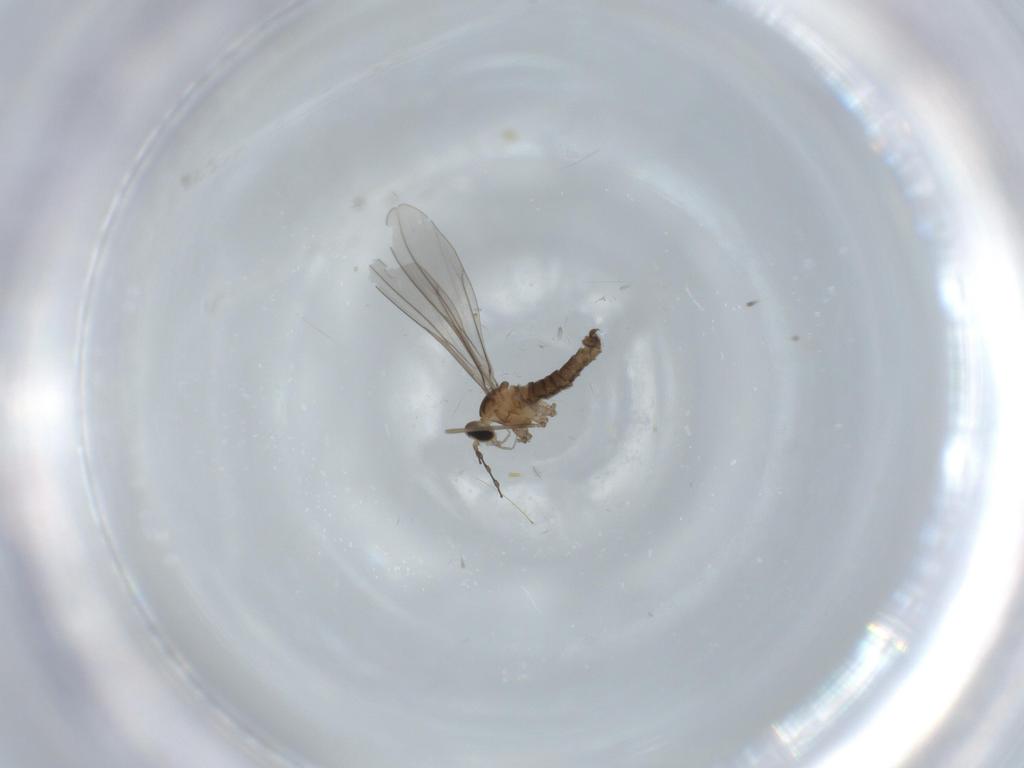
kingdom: Animalia
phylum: Arthropoda
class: Insecta
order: Diptera
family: Cecidomyiidae
